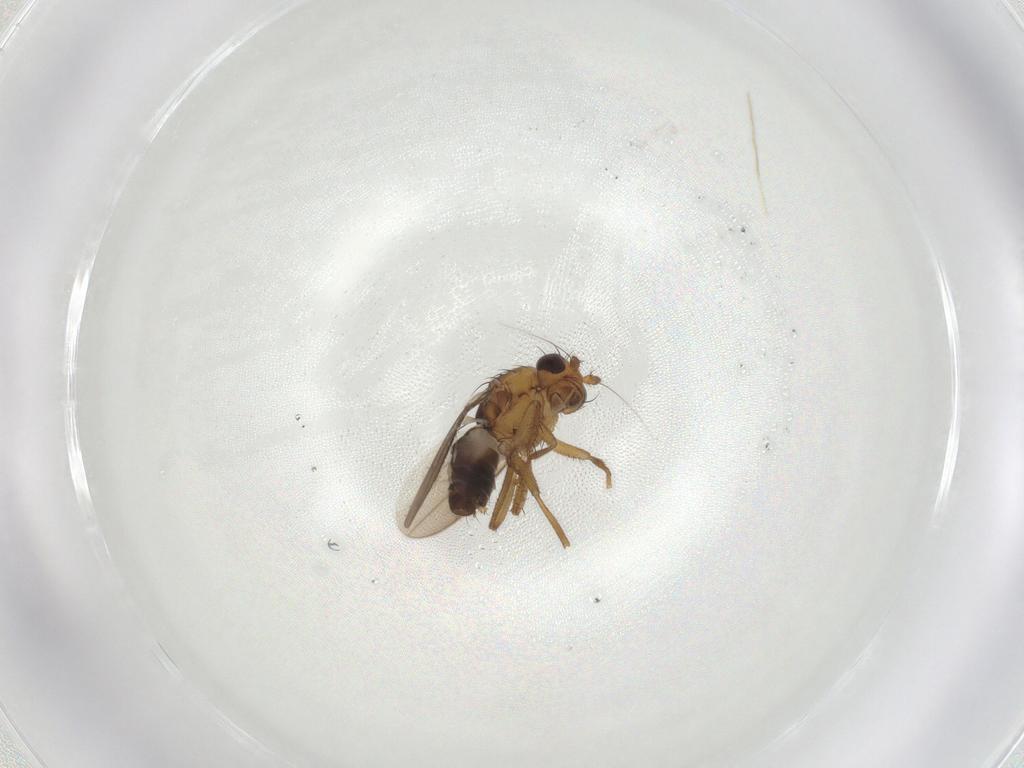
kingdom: Animalia
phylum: Arthropoda
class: Insecta
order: Diptera
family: Sphaeroceridae
